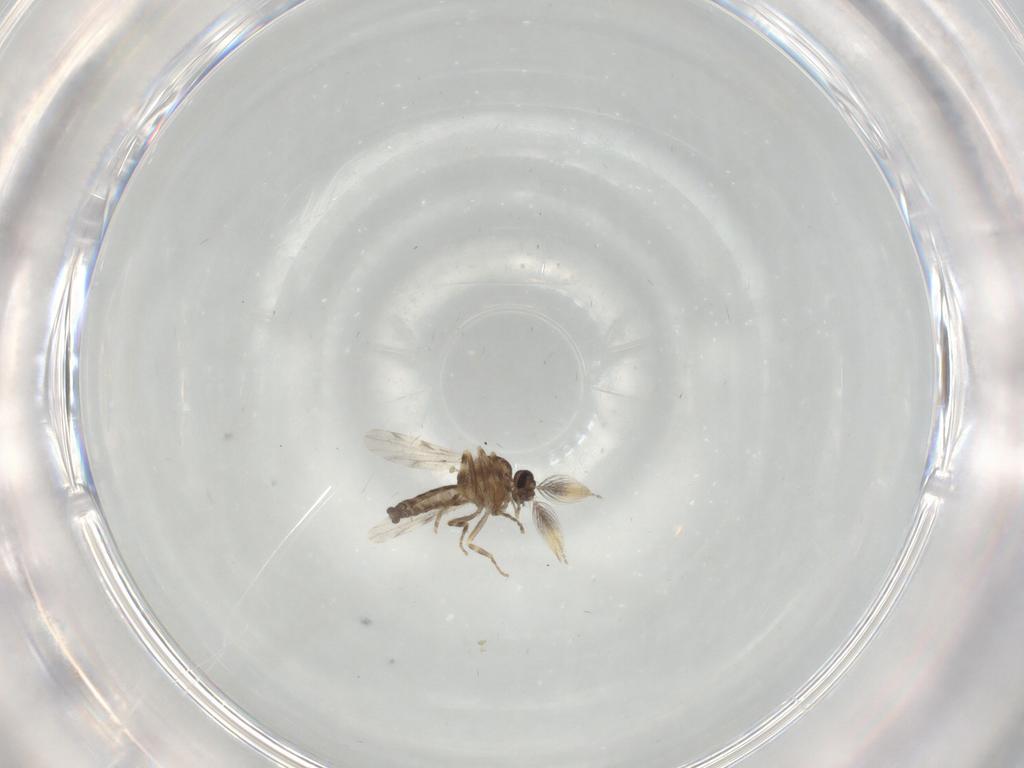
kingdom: Animalia
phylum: Arthropoda
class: Insecta
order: Diptera
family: Ceratopogonidae
